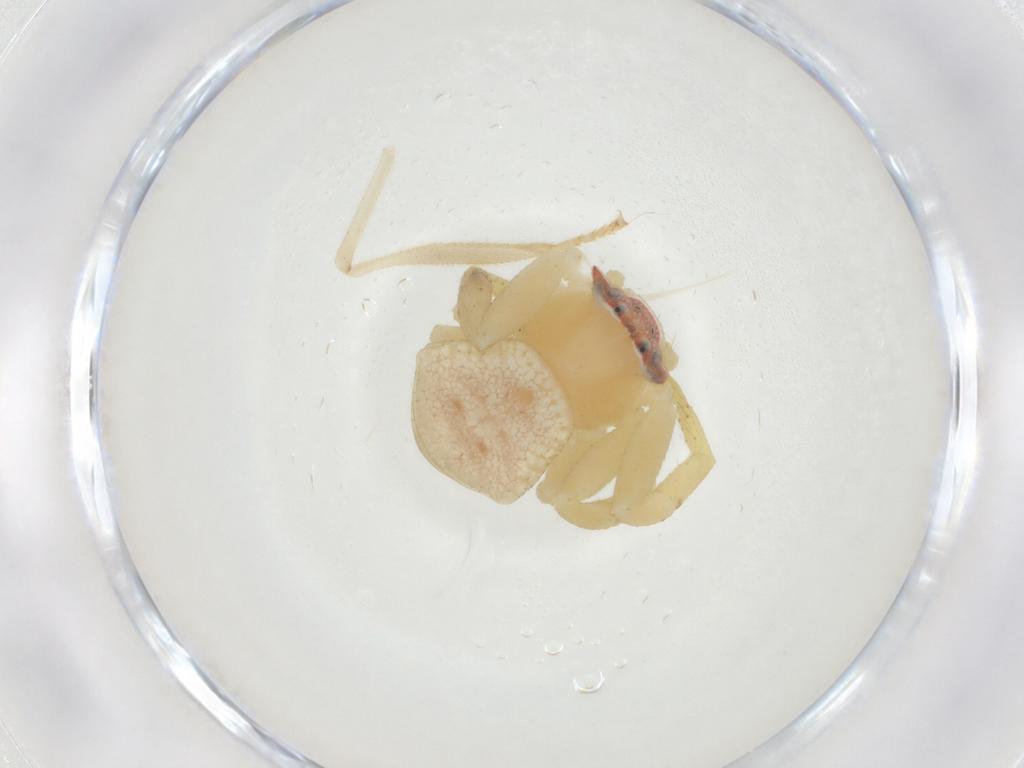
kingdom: Animalia
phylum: Arthropoda
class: Arachnida
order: Araneae
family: Thomisidae
